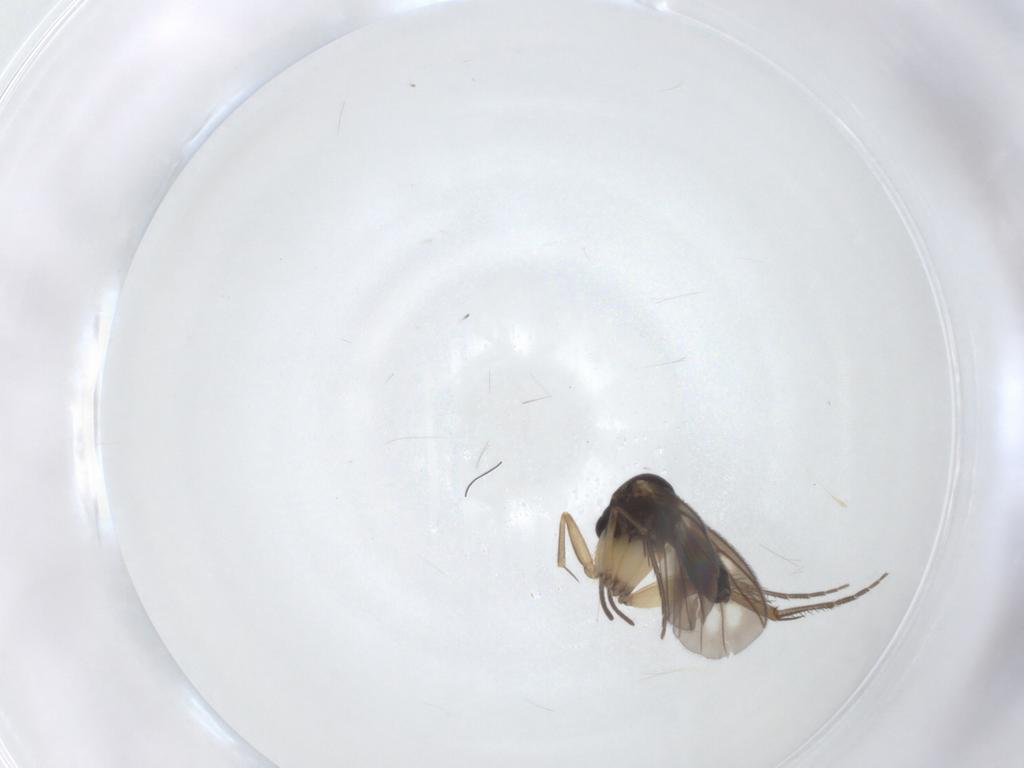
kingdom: Animalia
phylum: Arthropoda
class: Insecta
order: Diptera
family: Mycetophilidae
